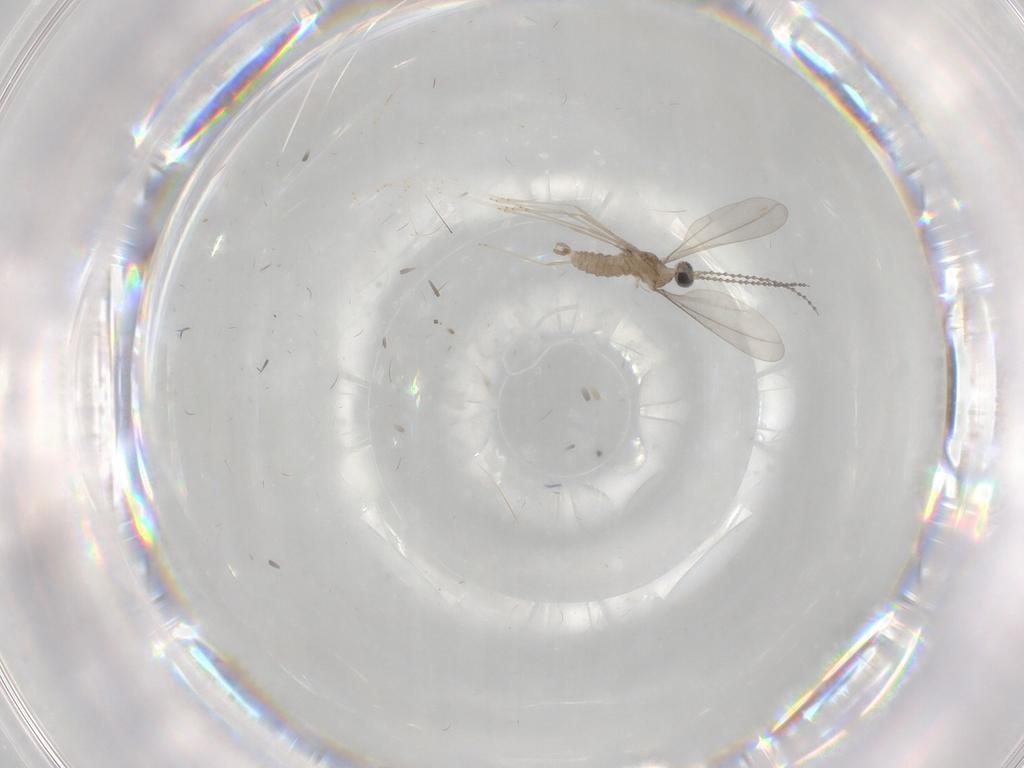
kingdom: Animalia
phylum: Arthropoda
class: Insecta
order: Diptera
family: Cecidomyiidae
